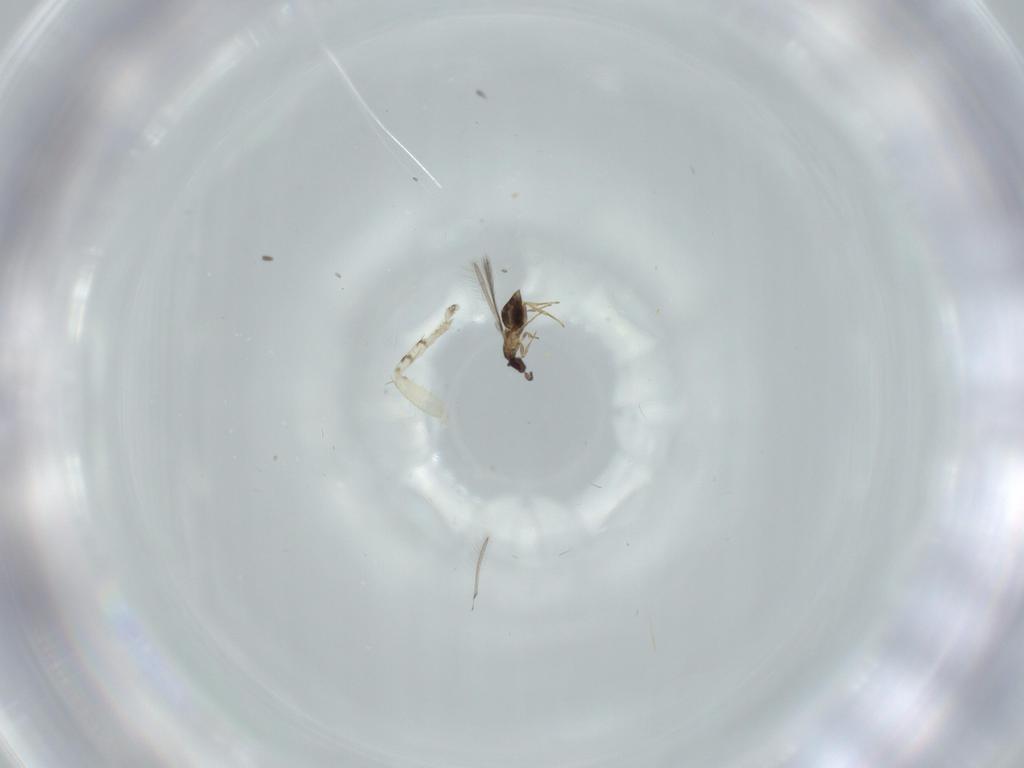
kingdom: Animalia
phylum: Arthropoda
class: Insecta
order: Hymenoptera
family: Mymaridae
